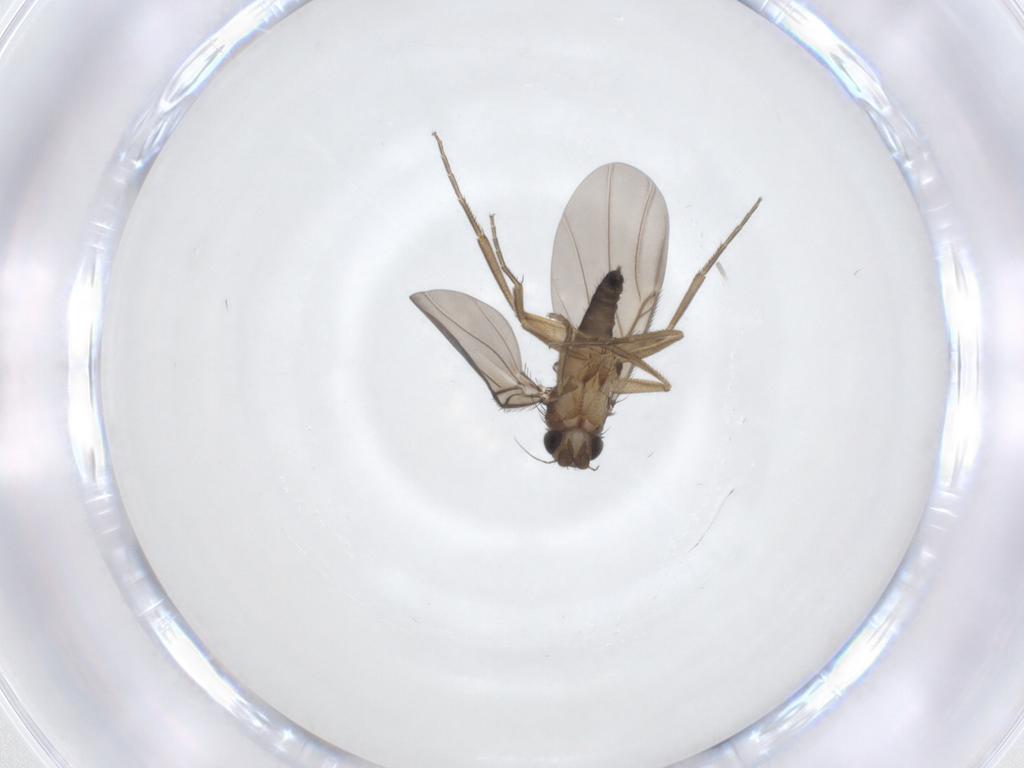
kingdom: Animalia
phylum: Arthropoda
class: Insecta
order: Diptera
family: Phoridae
